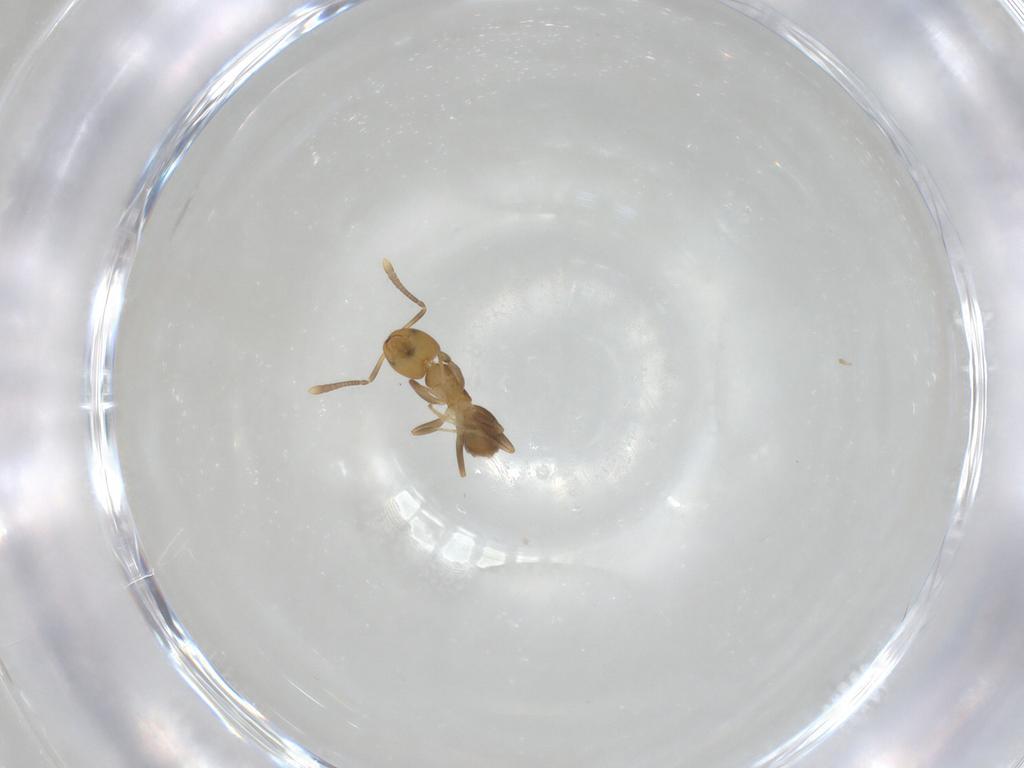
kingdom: Animalia
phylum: Arthropoda
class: Insecta
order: Hymenoptera
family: Formicidae
